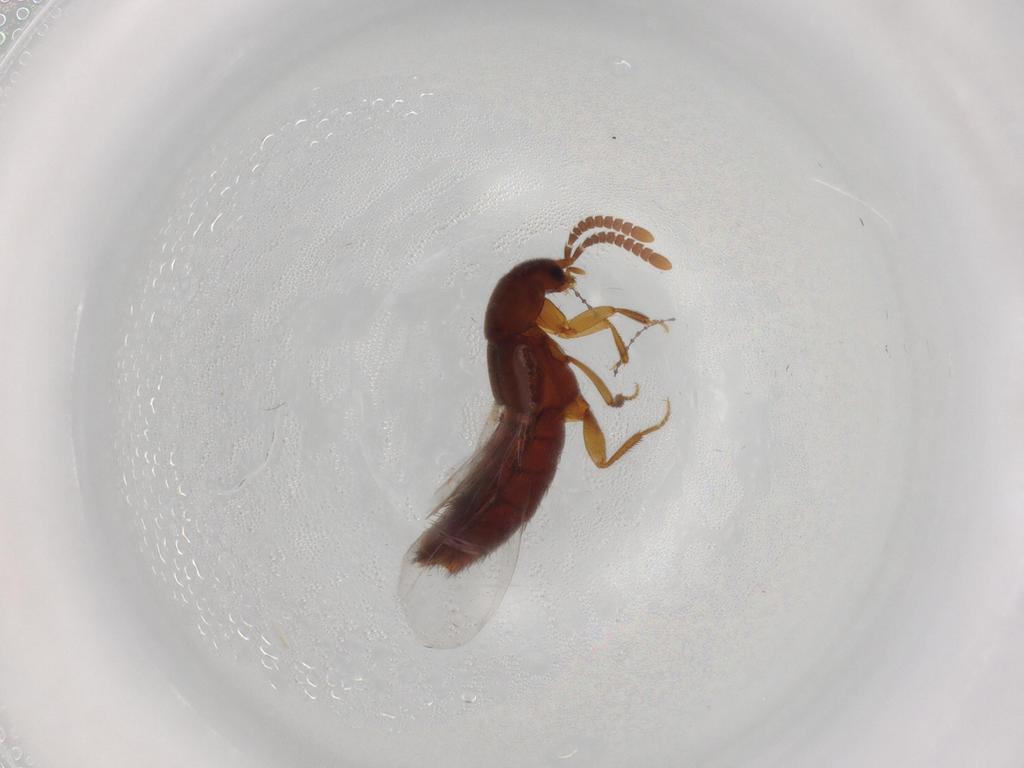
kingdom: Animalia
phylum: Arthropoda
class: Insecta
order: Coleoptera
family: Staphylinidae
